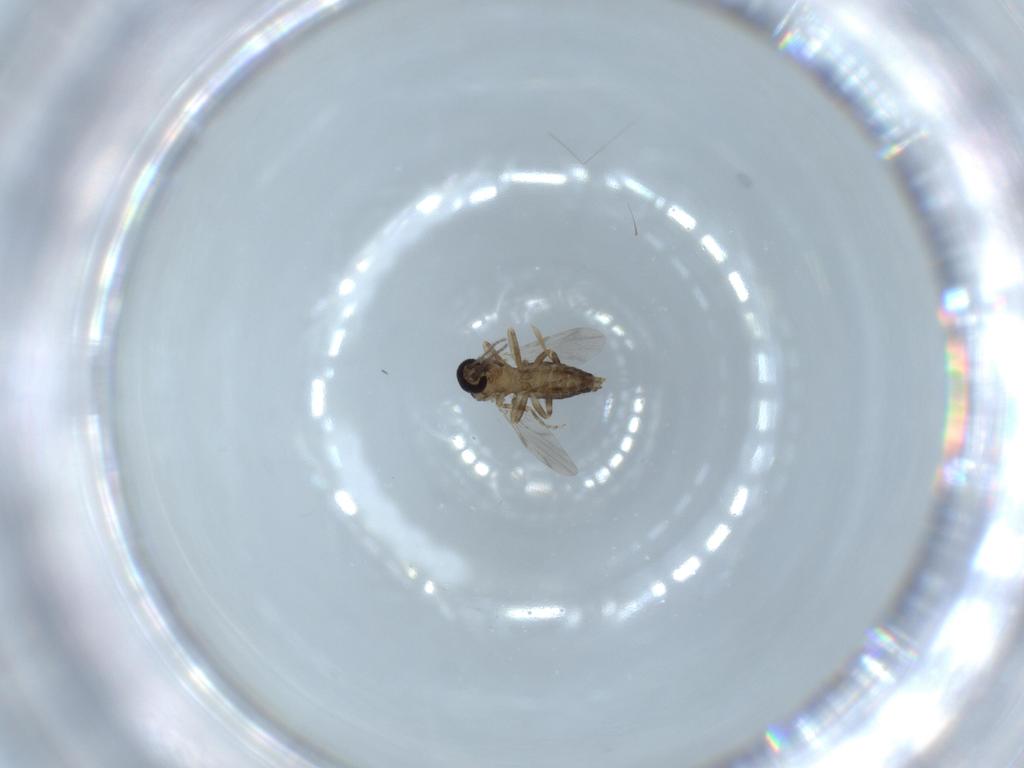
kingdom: Animalia
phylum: Arthropoda
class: Insecta
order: Diptera
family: Ceratopogonidae
